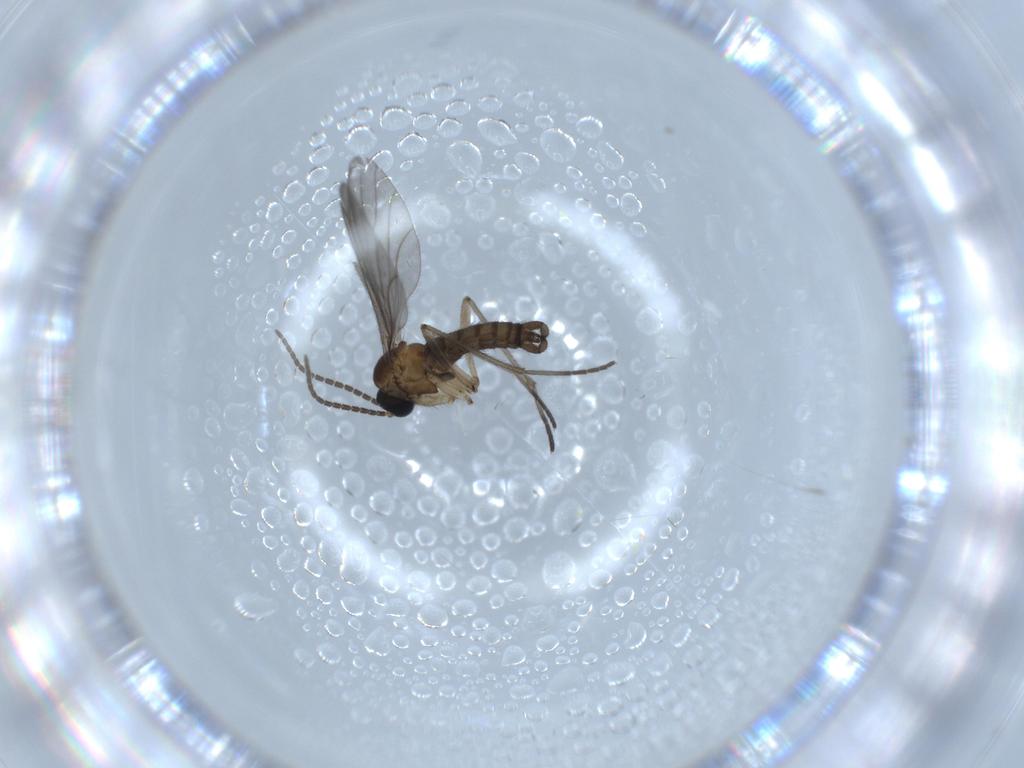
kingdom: Animalia
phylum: Arthropoda
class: Insecta
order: Diptera
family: Sciaridae
